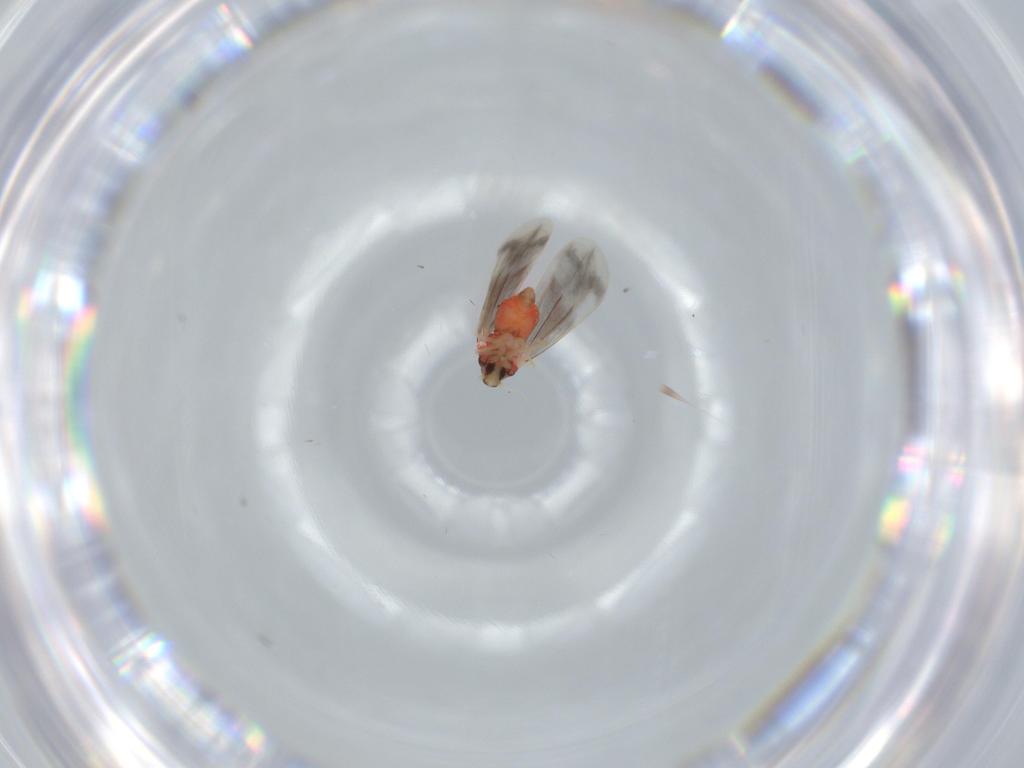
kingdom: Animalia
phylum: Arthropoda
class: Insecta
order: Hemiptera
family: Aleyrodidae
